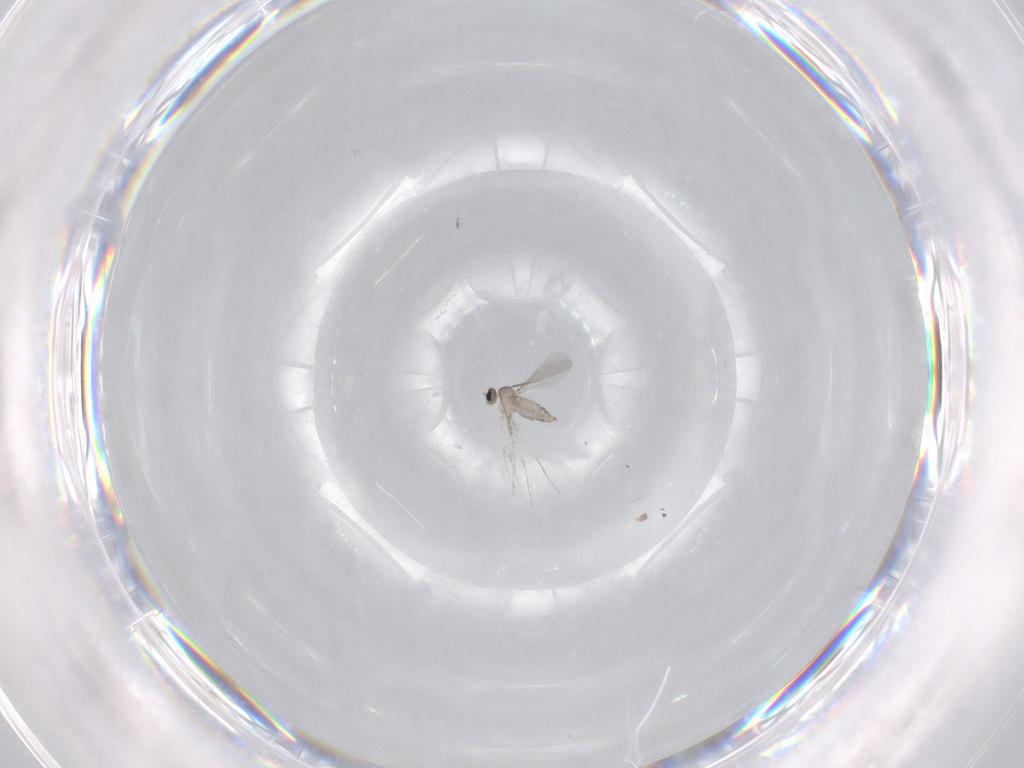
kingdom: Animalia
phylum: Arthropoda
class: Insecta
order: Diptera
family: Cecidomyiidae
